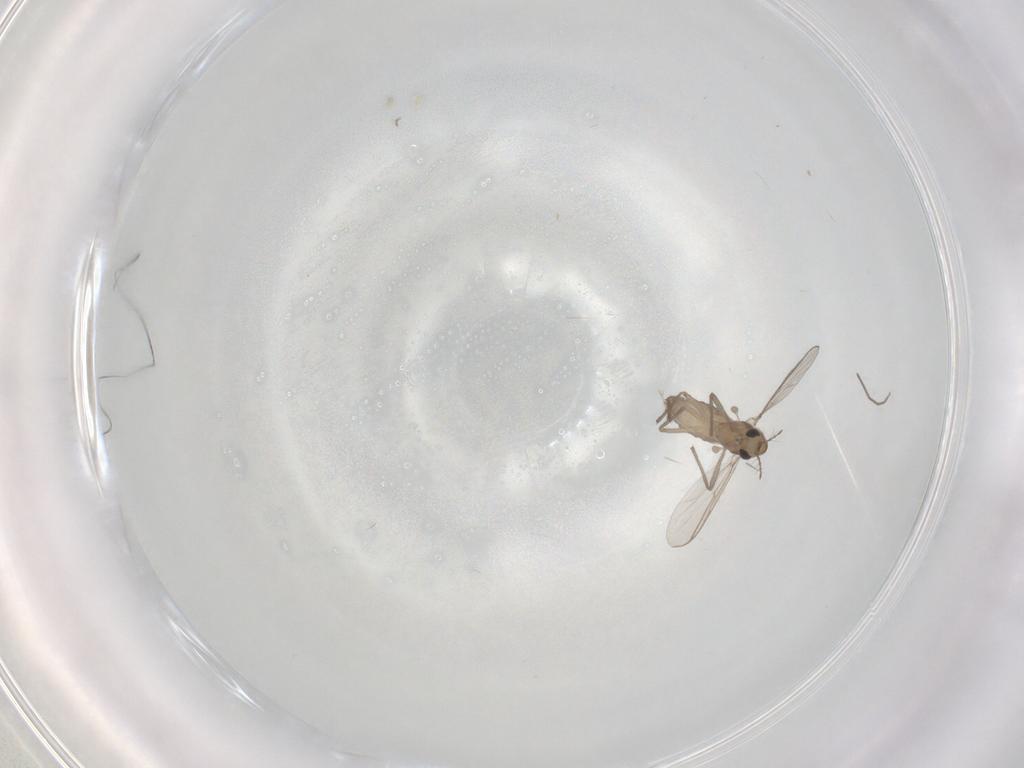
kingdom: Animalia
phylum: Arthropoda
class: Insecta
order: Diptera
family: Chironomidae
